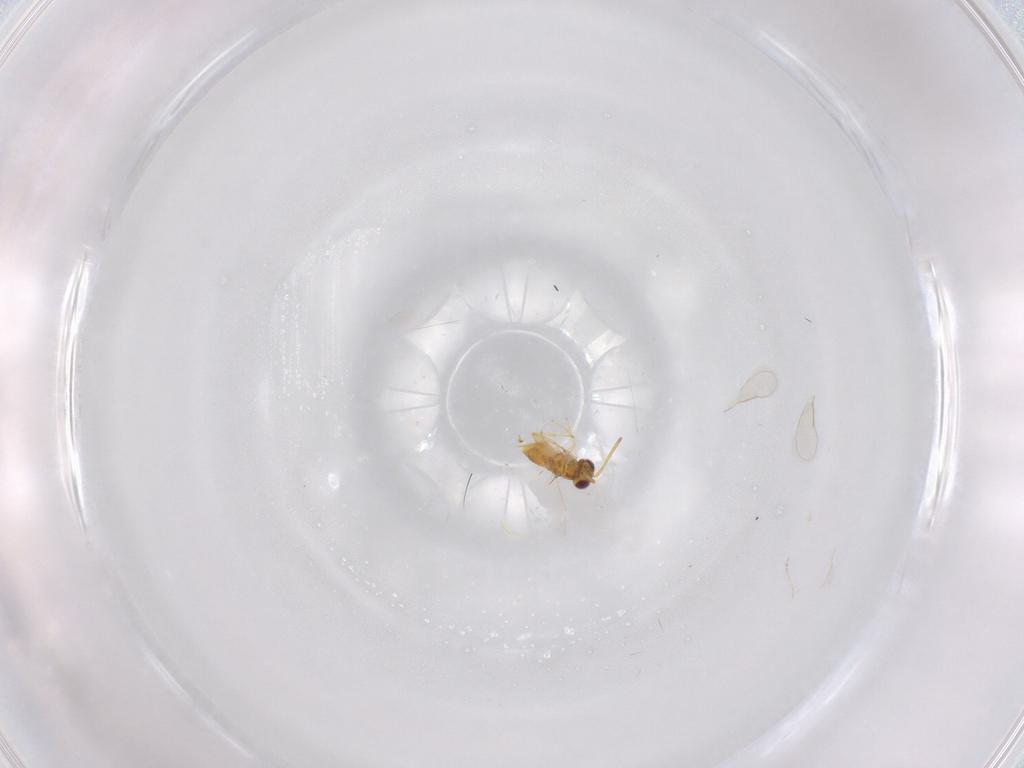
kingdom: Animalia
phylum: Arthropoda
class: Insecta
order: Hymenoptera
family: Aphelinidae
